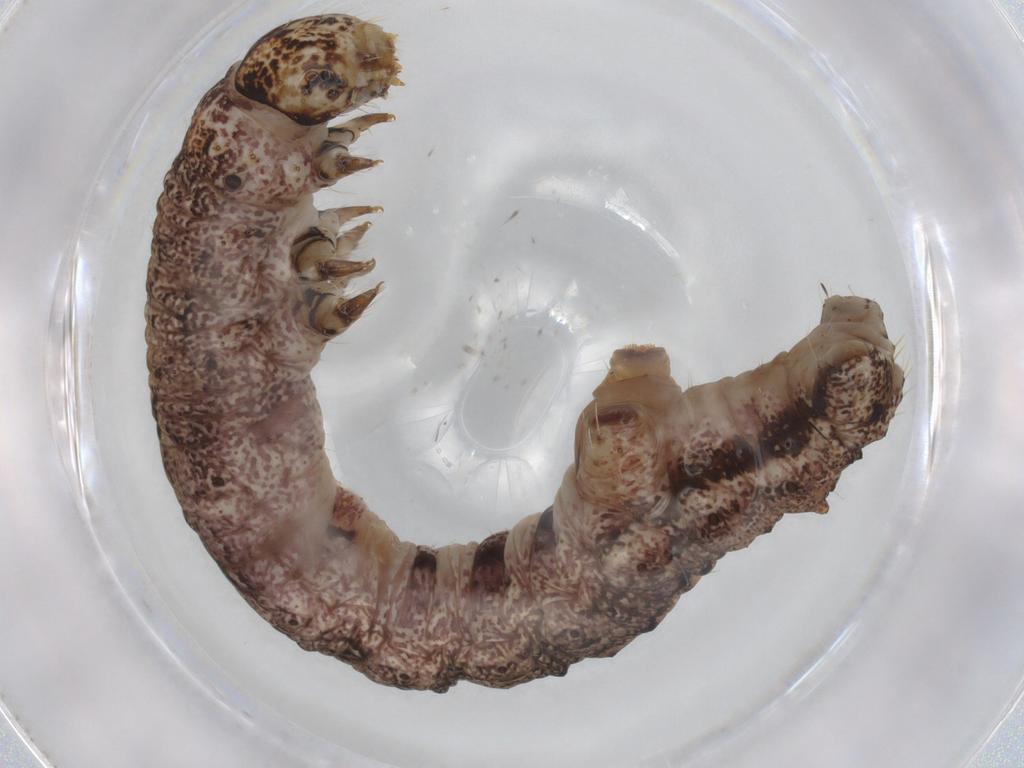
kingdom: Animalia
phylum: Arthropoda
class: Insecta
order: Lepidoptera
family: Geometridae
